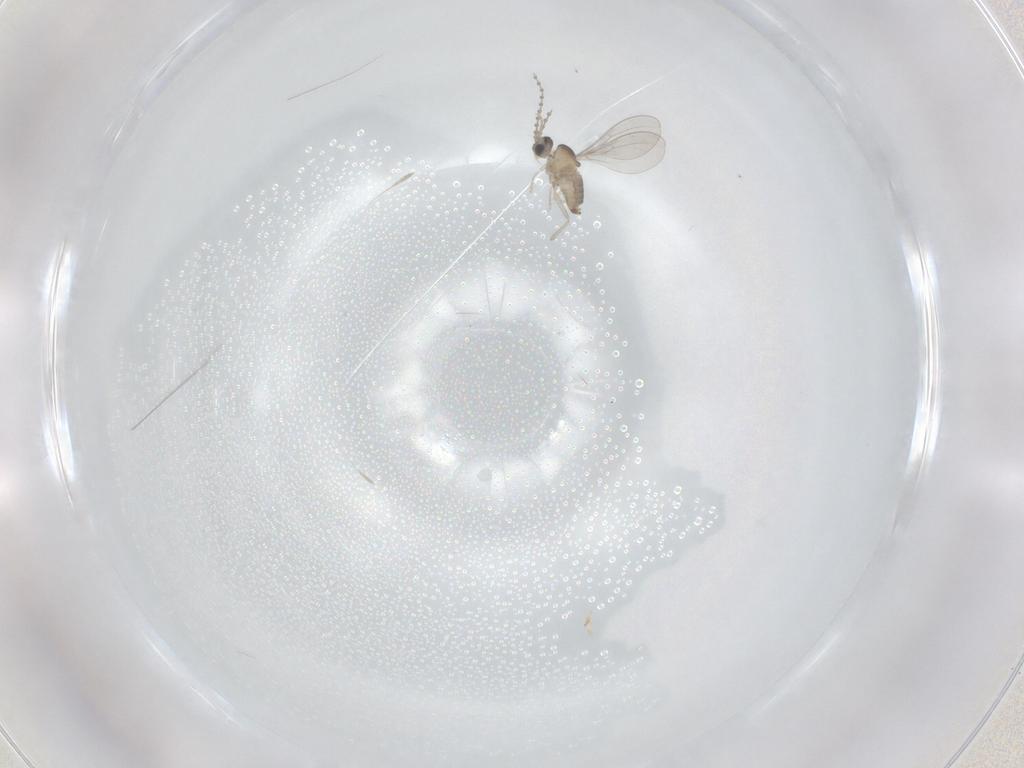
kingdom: Animalia
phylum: Arthropoda
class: Insecta
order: Diptera
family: Cecidomyiidae
